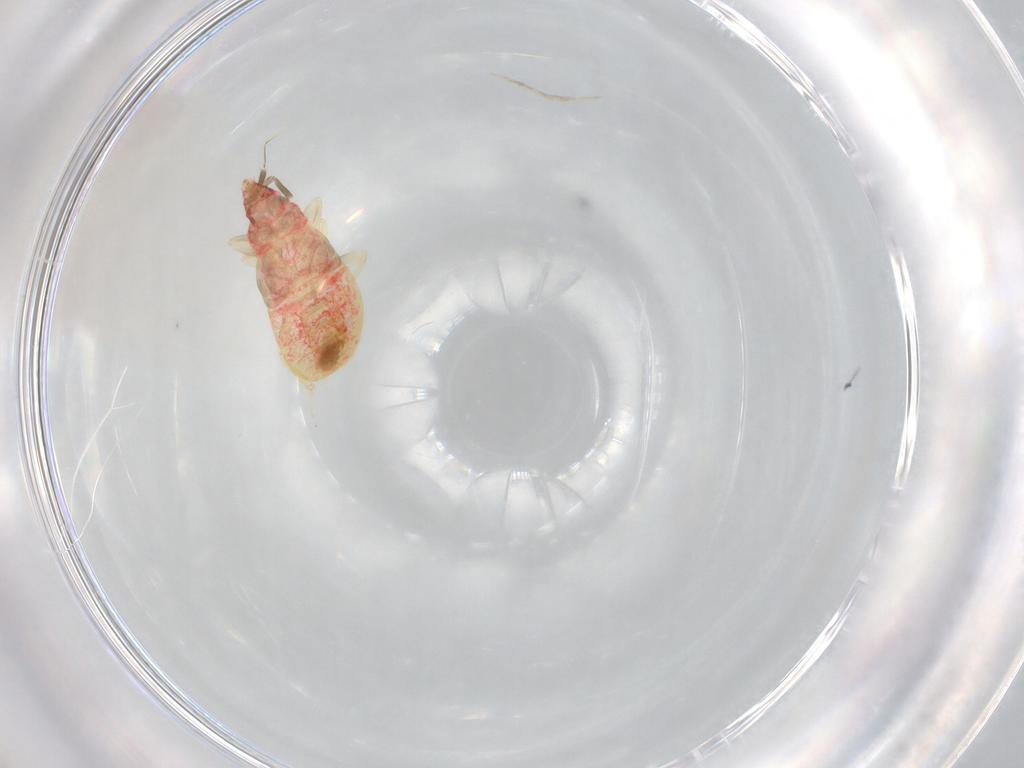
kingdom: Animalia
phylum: Arthropoda
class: Insecta
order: Hemiptera
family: Lasiochilidae
